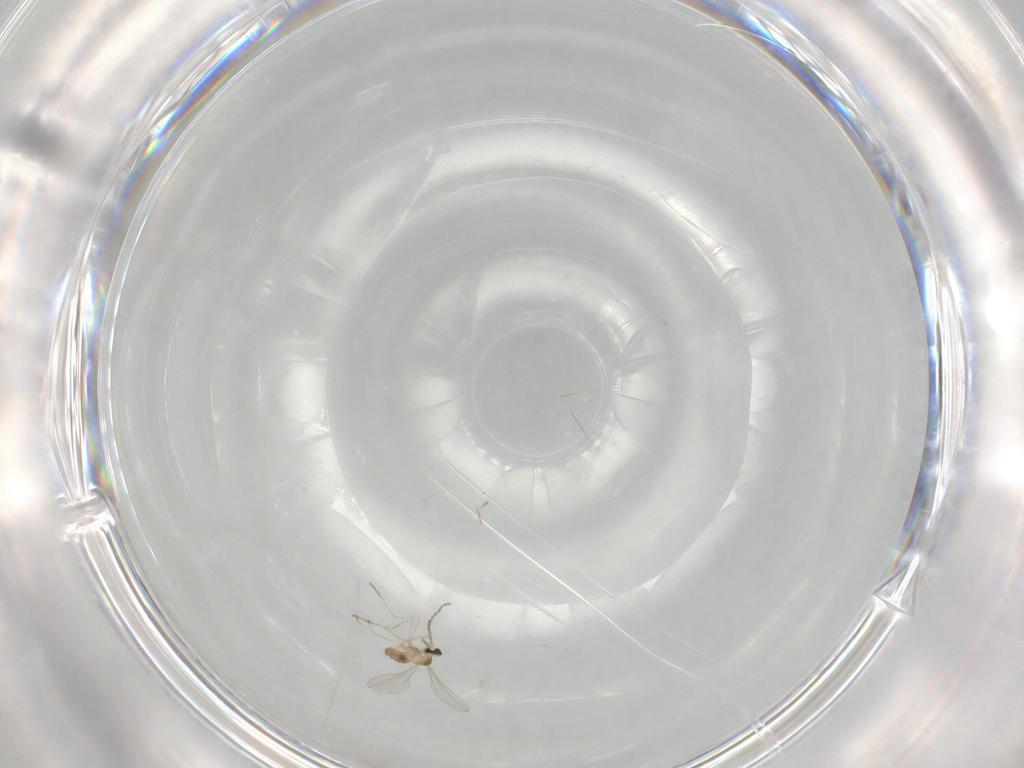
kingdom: Animalia
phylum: Arthropoda
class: Insecta
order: Diptera
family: Cecidomyiidae
